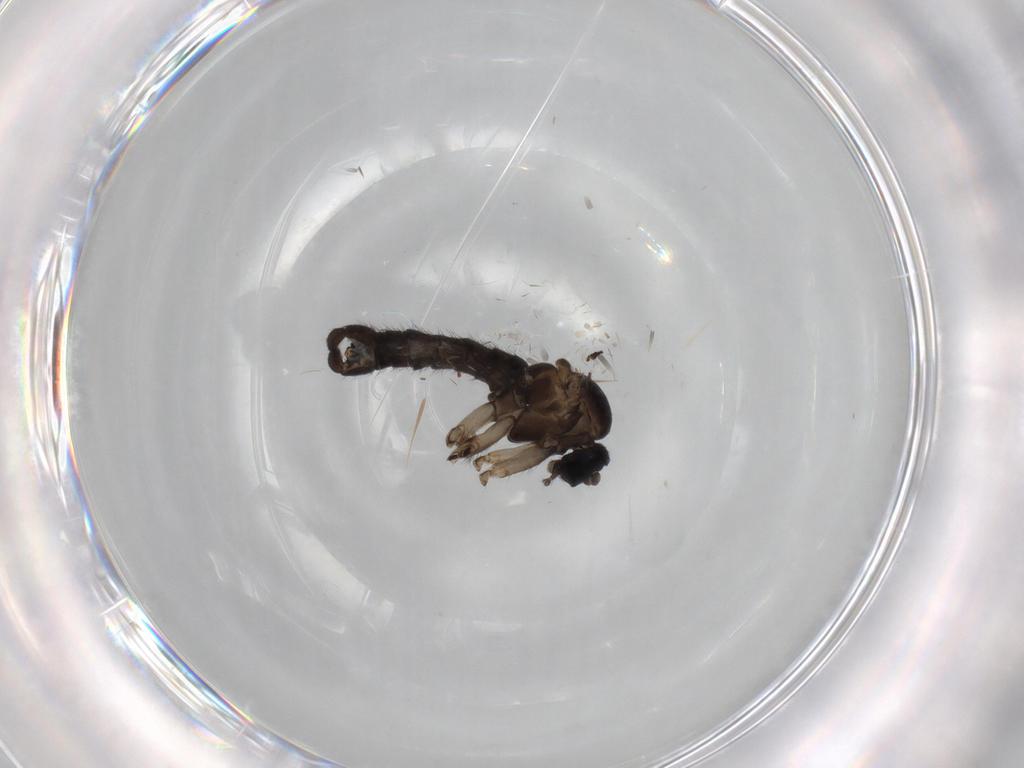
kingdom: Animalia
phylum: Arthropoda
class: Insecta
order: Diptera
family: Sciaridae
